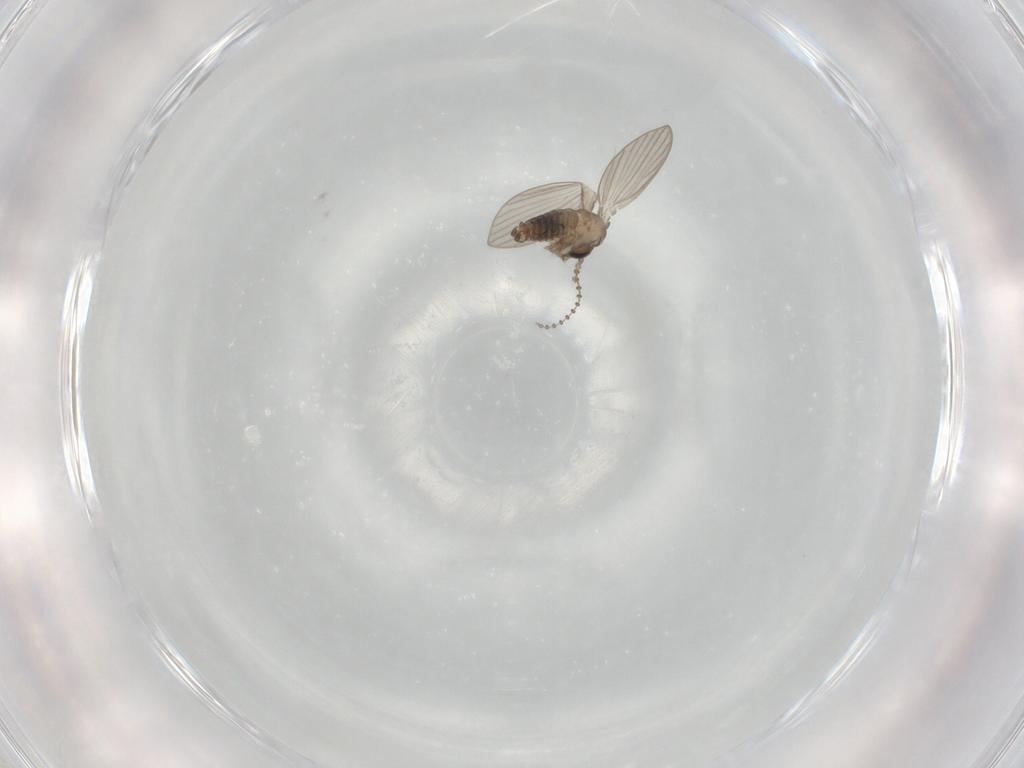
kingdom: Animalia
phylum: Arthropoda
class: Insecta
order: Diptera
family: Psychodidae
